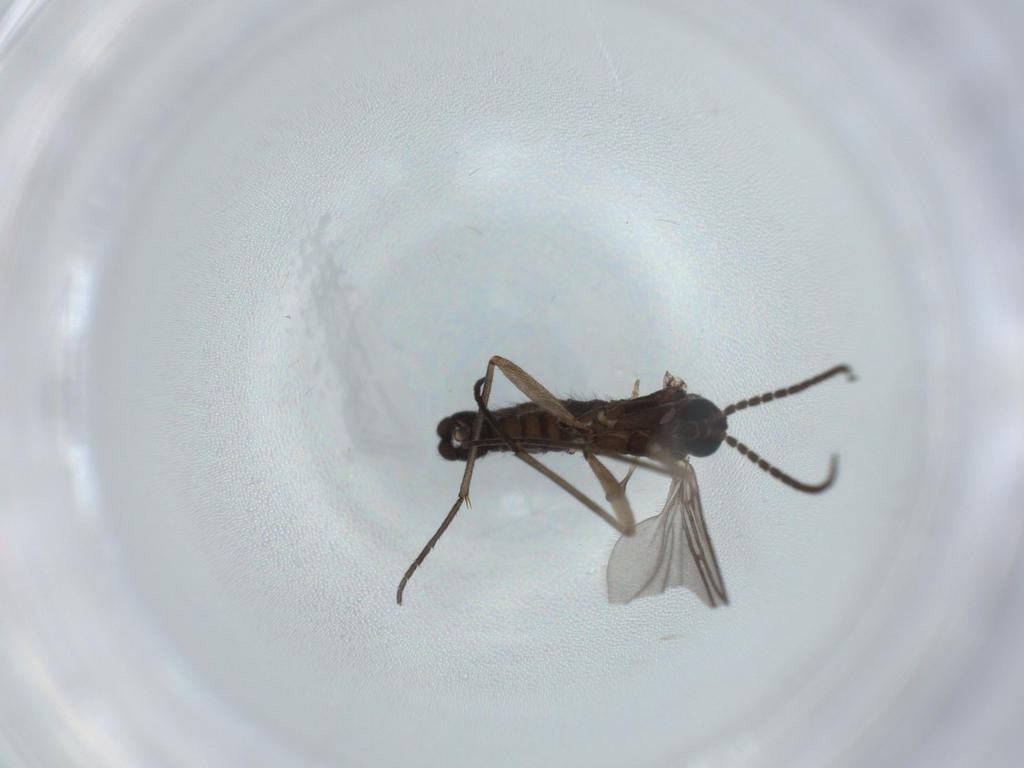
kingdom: Animalia
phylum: Arthropoda
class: Insecta
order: Diptera
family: Sciaridae
